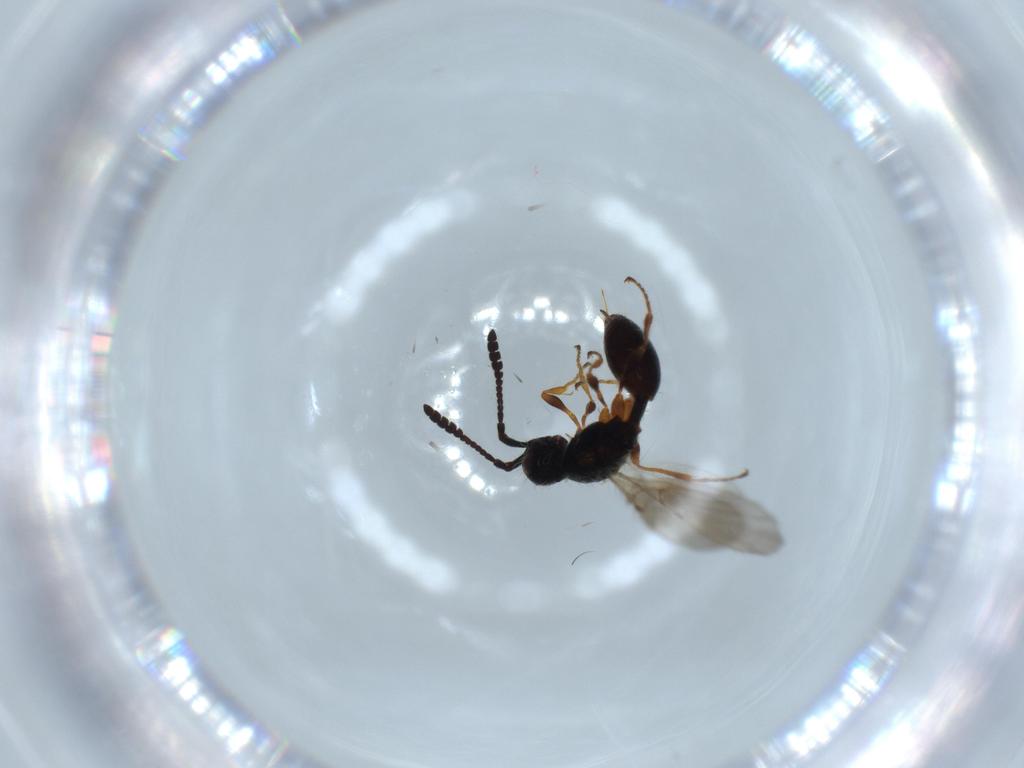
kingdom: Animalia
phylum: Arthropoda
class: Insecta
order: Hymenoptera
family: Diapriidae
